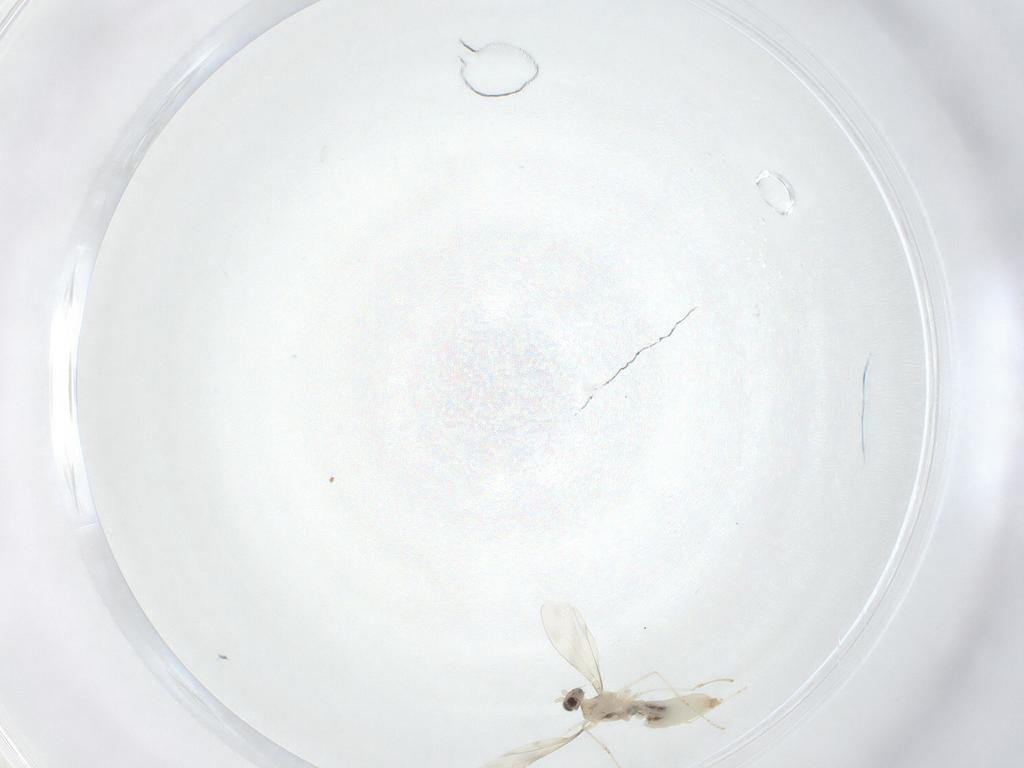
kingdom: Animalia
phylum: Arthropoda
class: Insecta
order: Diptera
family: Cecidomyiidae
